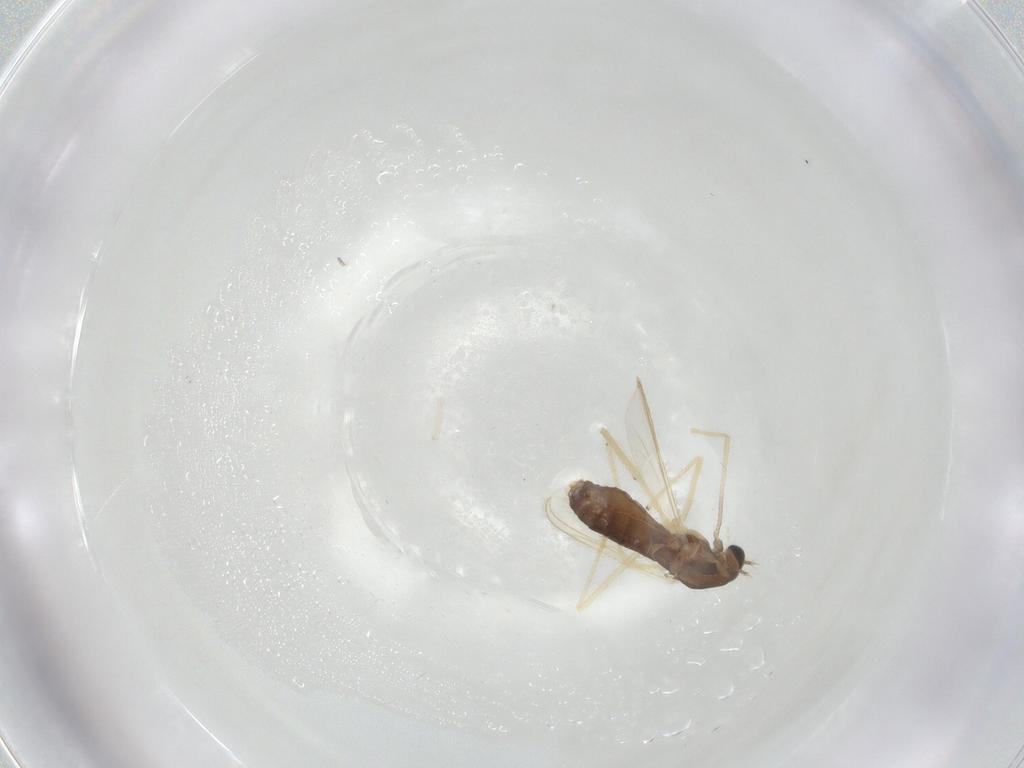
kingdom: Animalia
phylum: Arthropoda
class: Insecta
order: Diptera
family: Chironomidae
